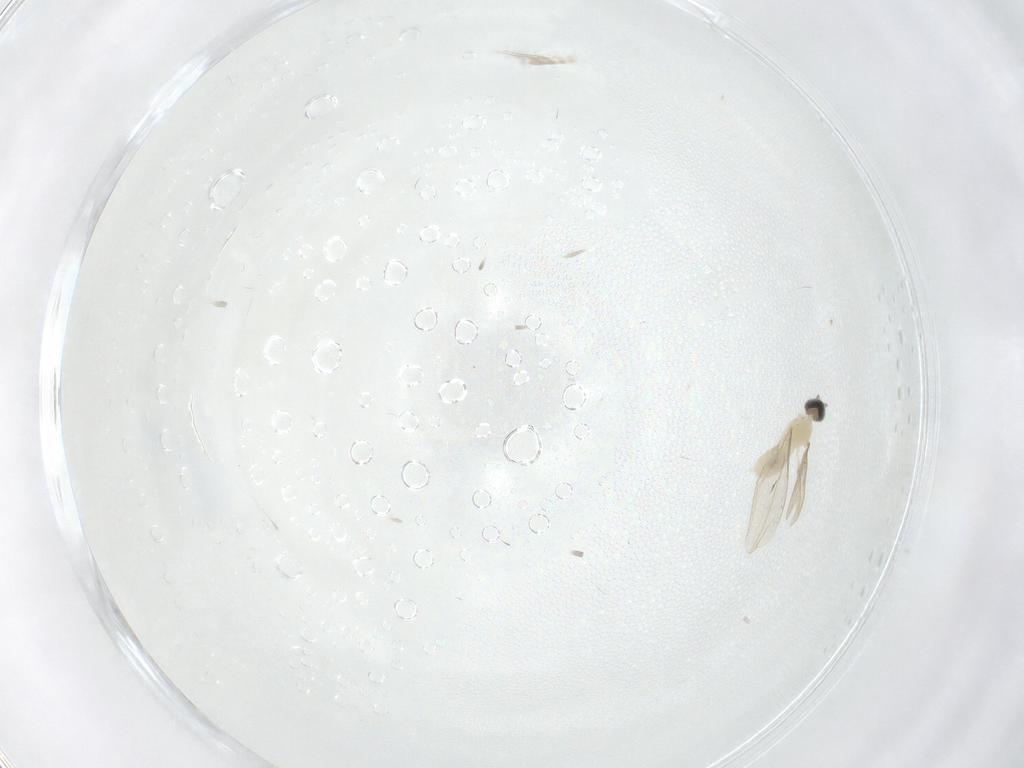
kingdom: Animalia
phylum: Arthropoda
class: Insecta
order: Diptera
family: Cecidomyiidae
